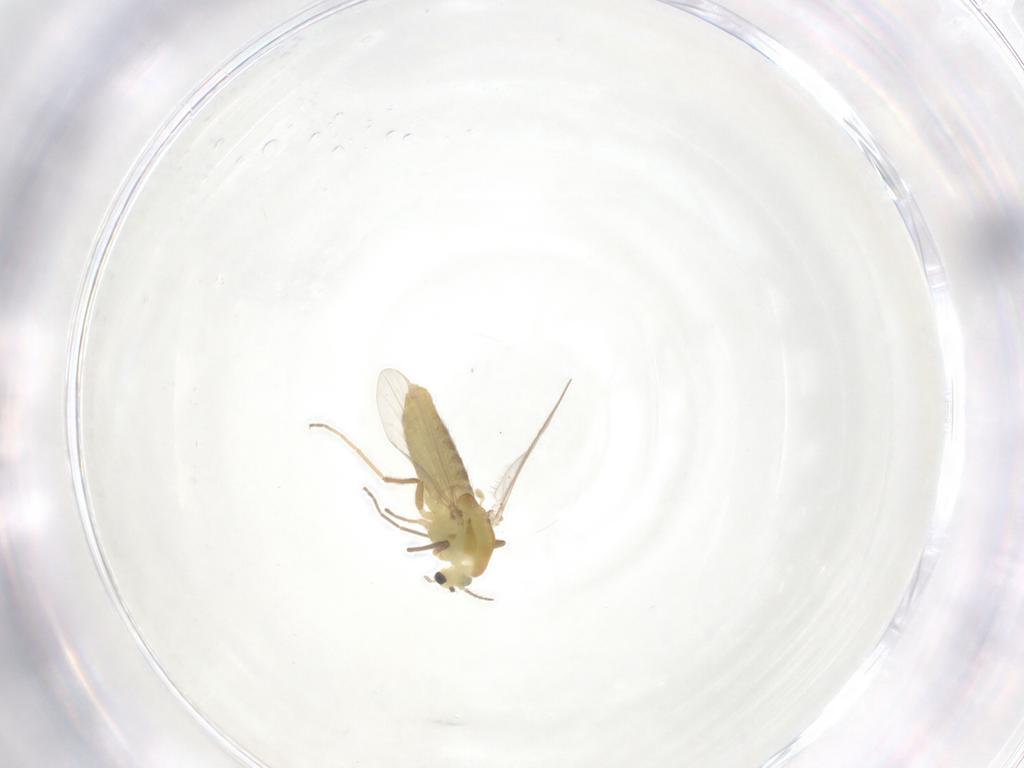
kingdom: Animalia
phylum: Arthropoda
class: Insecta
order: Diptera
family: Chironomidae
